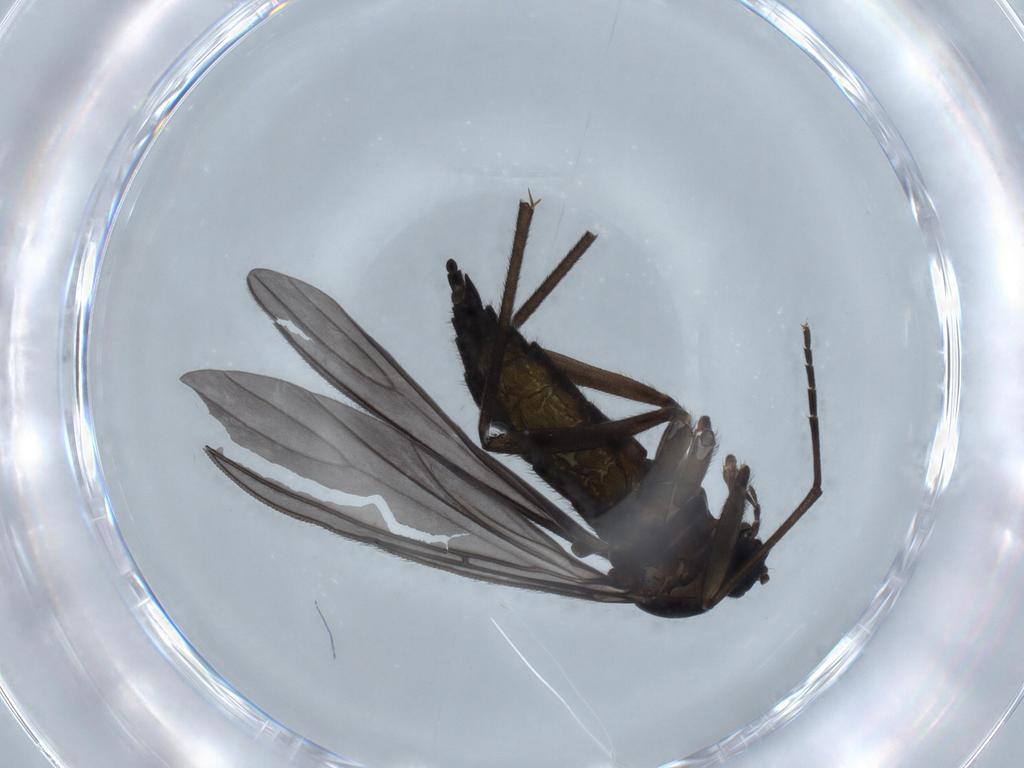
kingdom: Animalia
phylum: Arthropoda
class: Insecta
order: Diptera
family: Sciaridae
